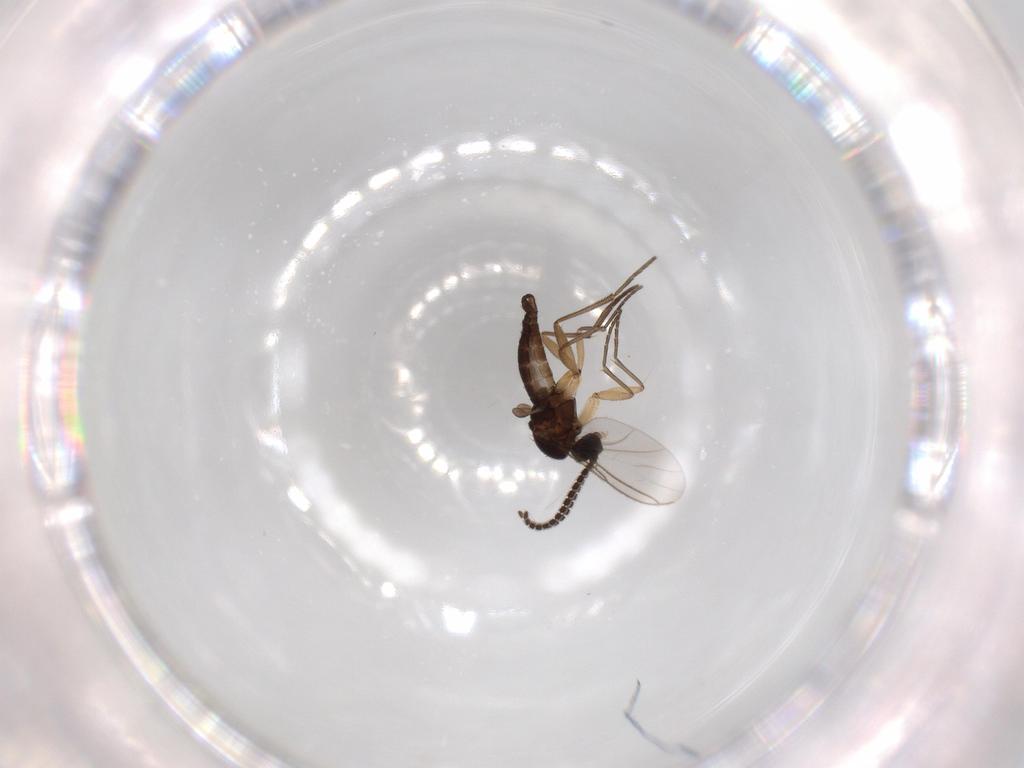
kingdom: Animalia
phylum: Arthropoda
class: Insecta
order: Diptera
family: Sciaridae
